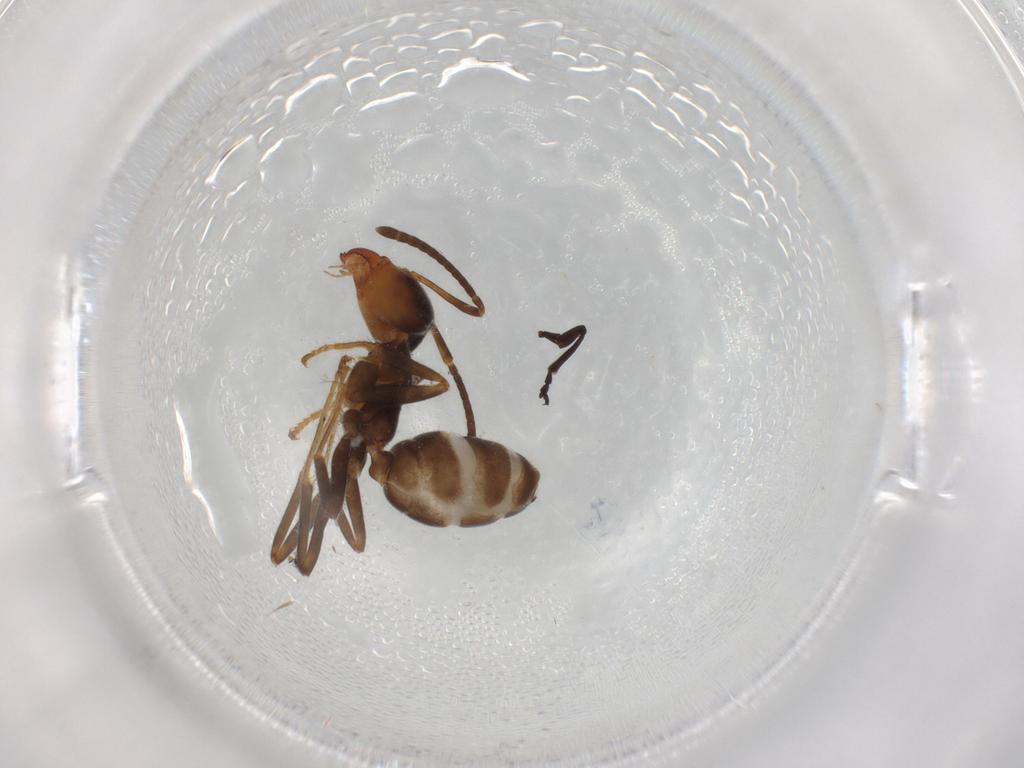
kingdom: Animalia
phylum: Arthropoda
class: Insecta
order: Hymenoptera
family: Formicidae
